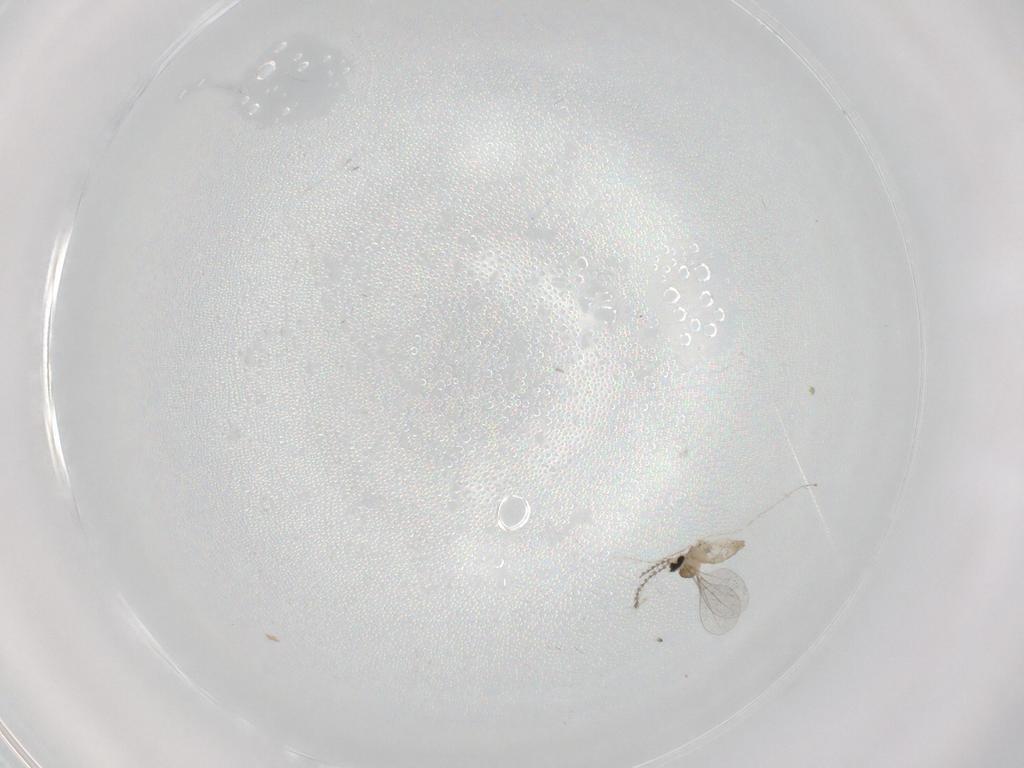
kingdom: Animalia
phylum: Arthropoda
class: Insecta
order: Diptera
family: Cecidomyiidae
